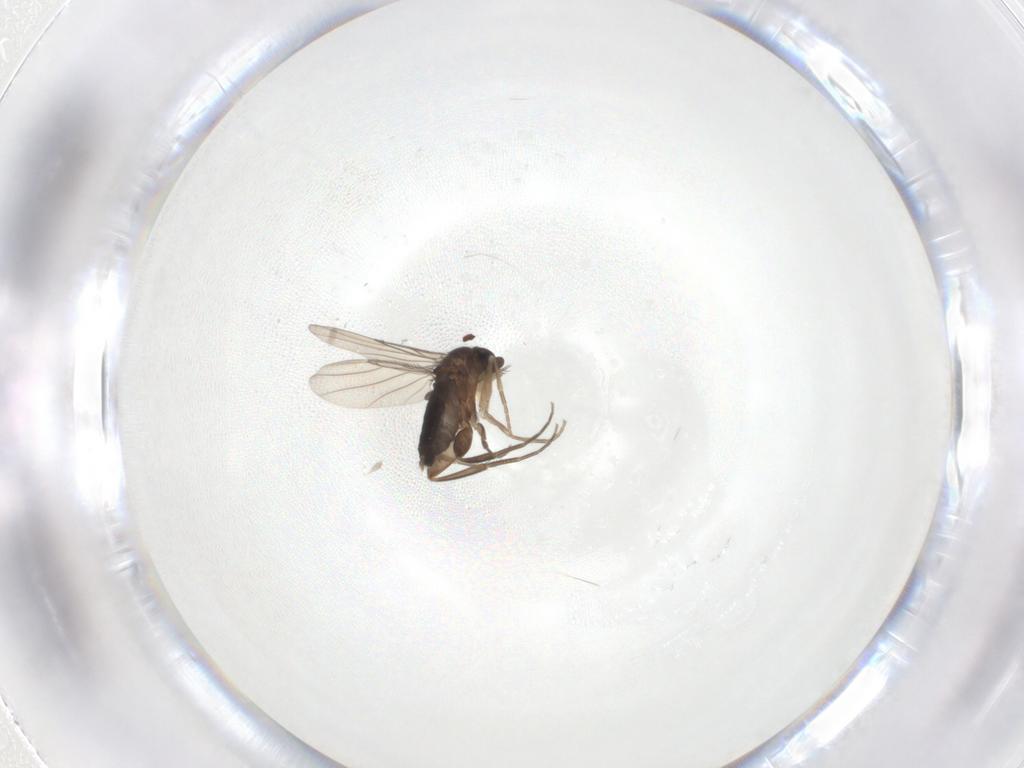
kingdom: Animalia
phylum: Arthropoda
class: Insecta
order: Diptera
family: Phoridae
